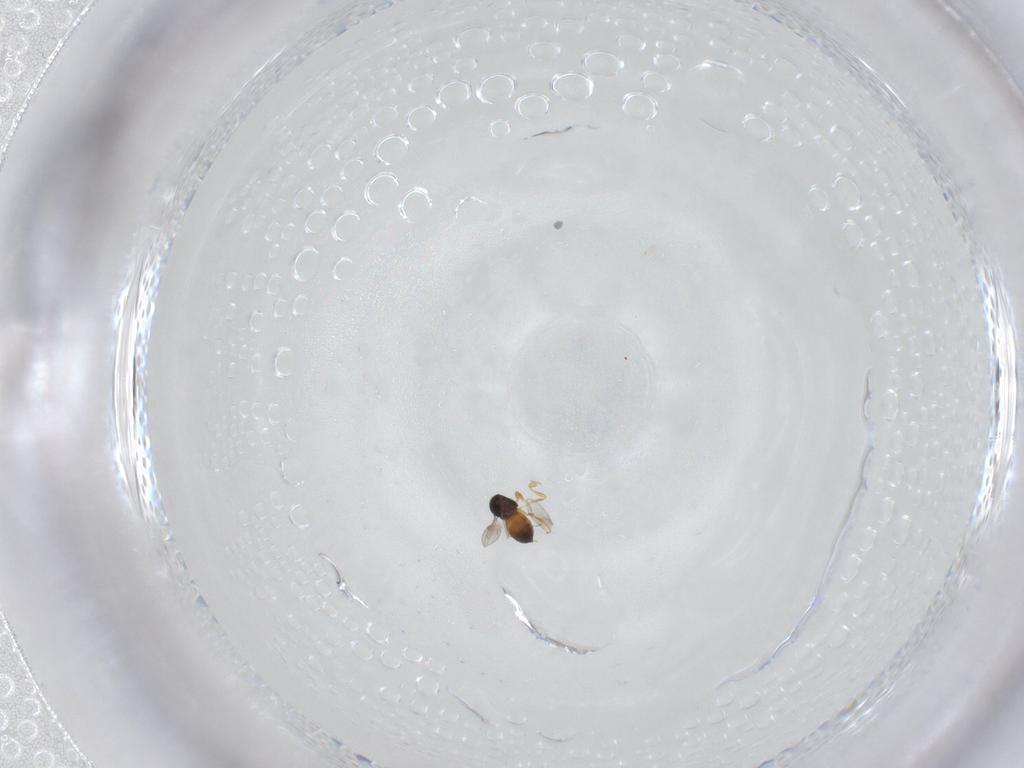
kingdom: Animalia
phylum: Arthropoda
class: Insecta
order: Hymenoptera
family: Scelionidae
